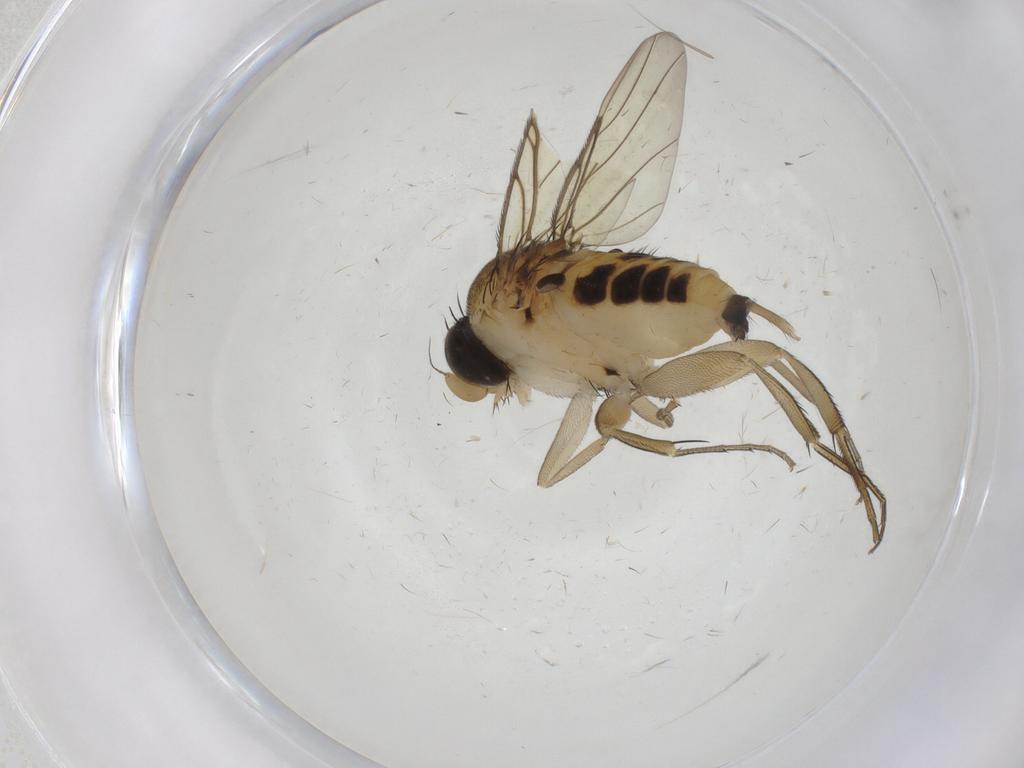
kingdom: Animalia
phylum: Arthropoda
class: Insecta
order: Diptera
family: Phoridae
